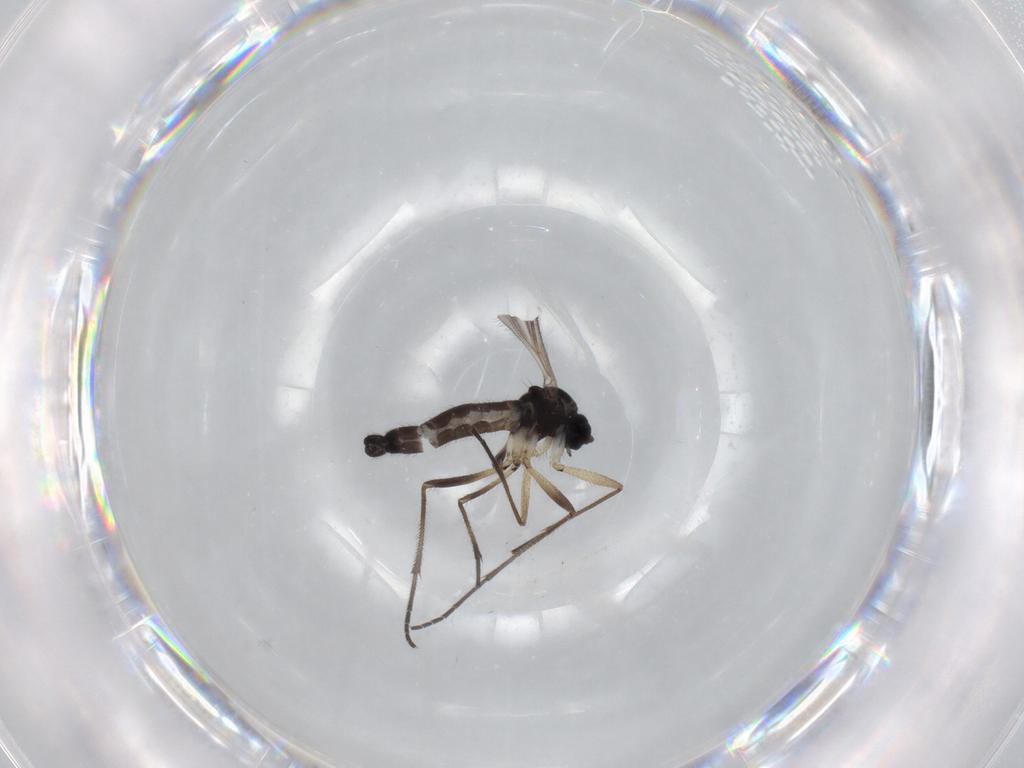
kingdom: Animalia
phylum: Arthropoda
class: Insecta
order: Diptera
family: Sciaridae
